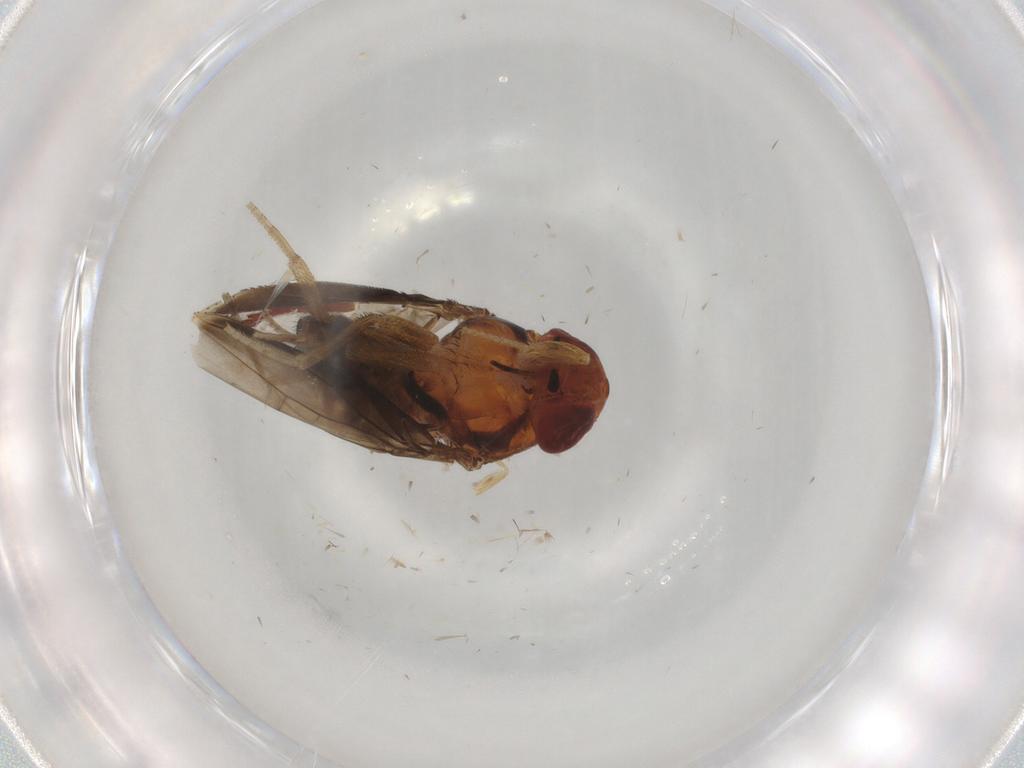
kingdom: Animalia
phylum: Arthropoda
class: Insecta
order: Diptera
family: Drosophilidae
